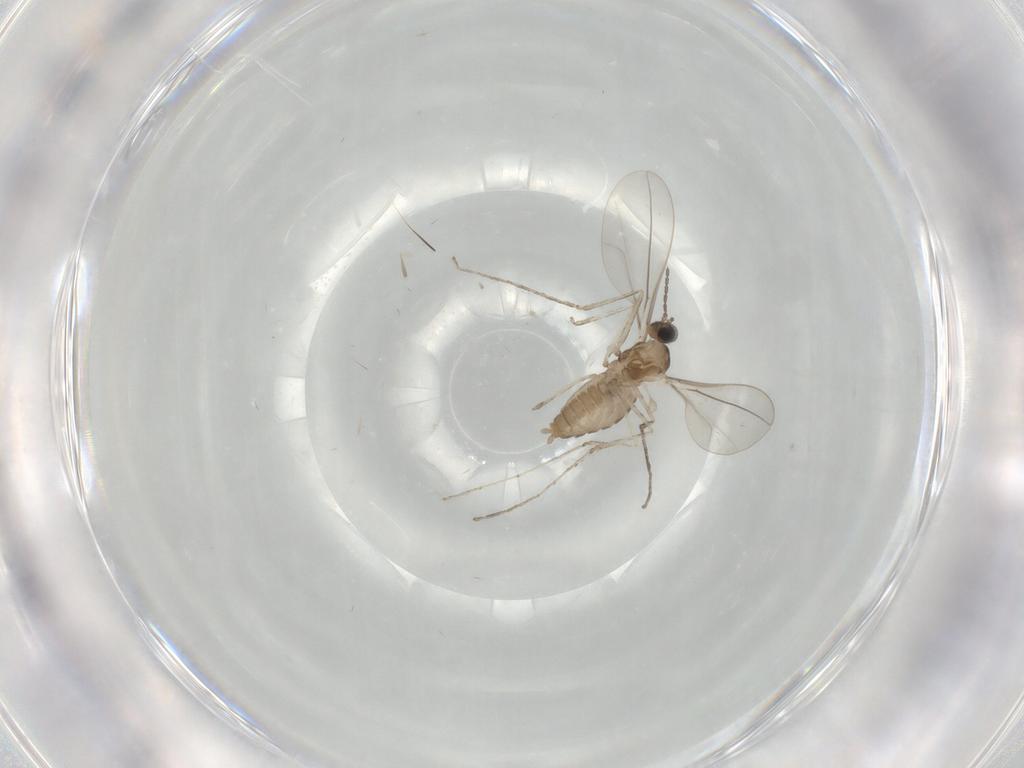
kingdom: Animalia
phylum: Arthropoda
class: Insecta
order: Diptera
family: Cecidomyiidae
